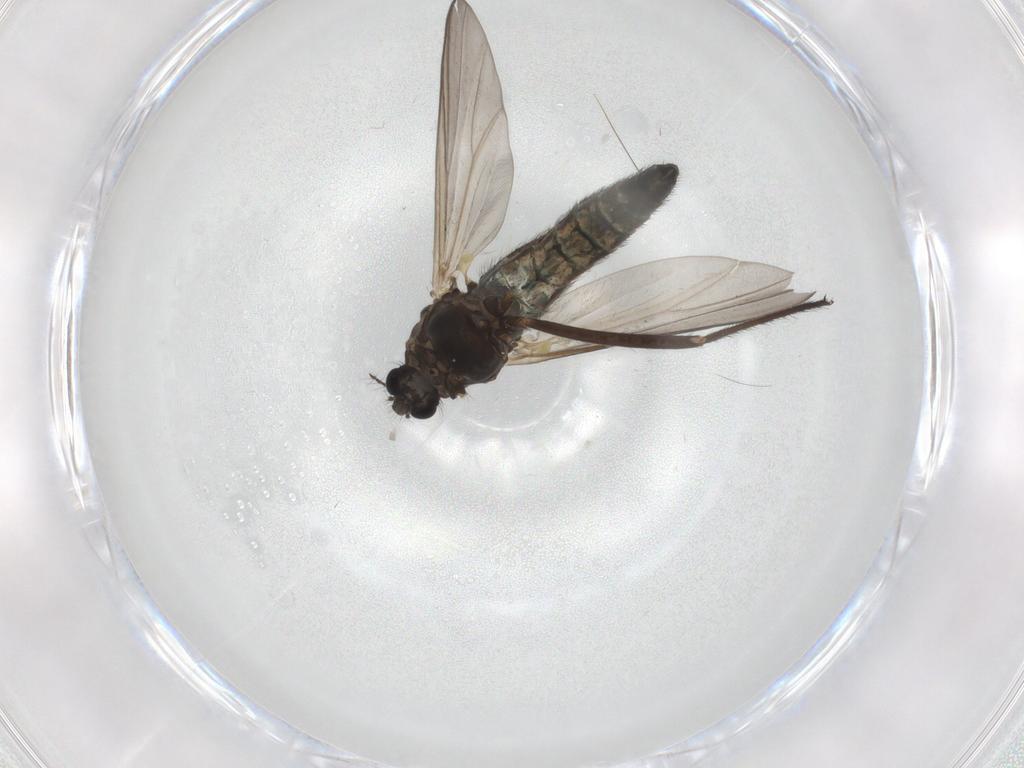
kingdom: Animalia
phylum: Arthropoda
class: Insecta
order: Diptera
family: Chironomidae
